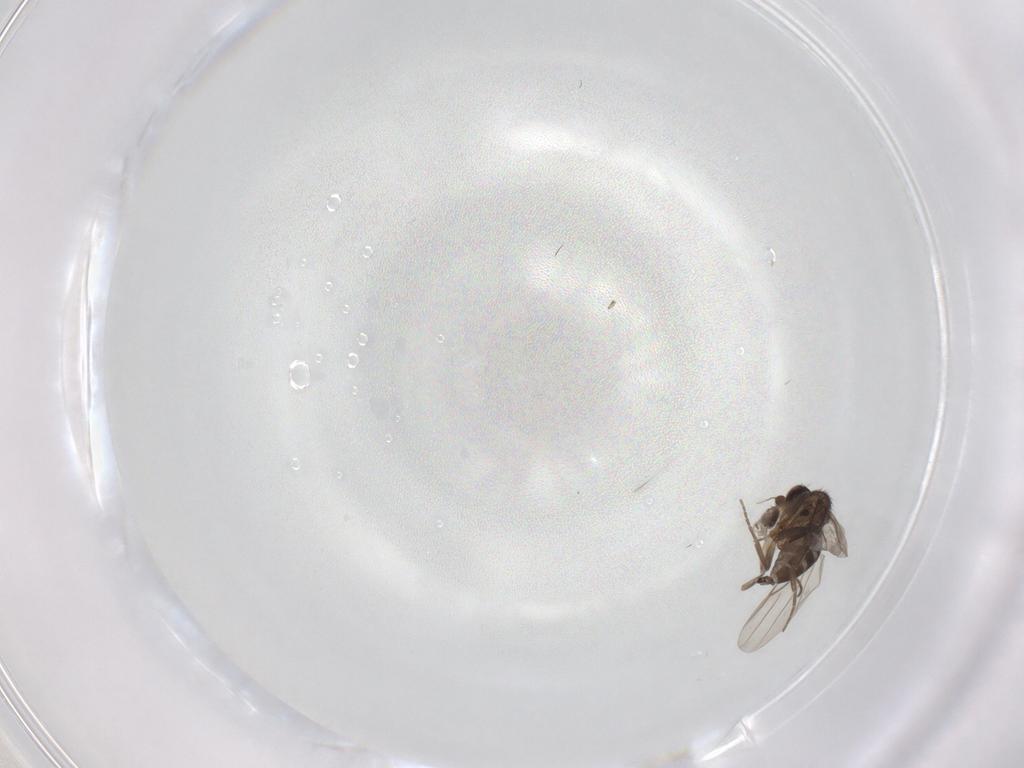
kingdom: Animalia
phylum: Arthropoda
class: Insecta
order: Diptera
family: Phoridae
